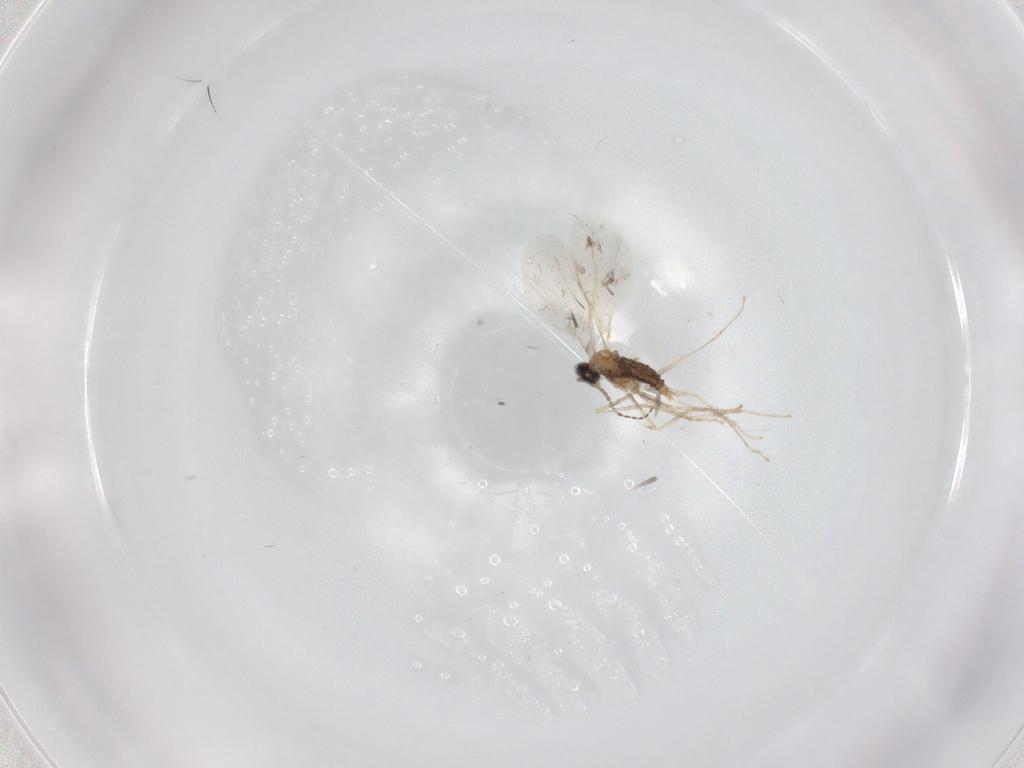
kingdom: Animalia
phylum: Arthropoda
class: Insecta
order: Diptera
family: Cecidomyiidae
